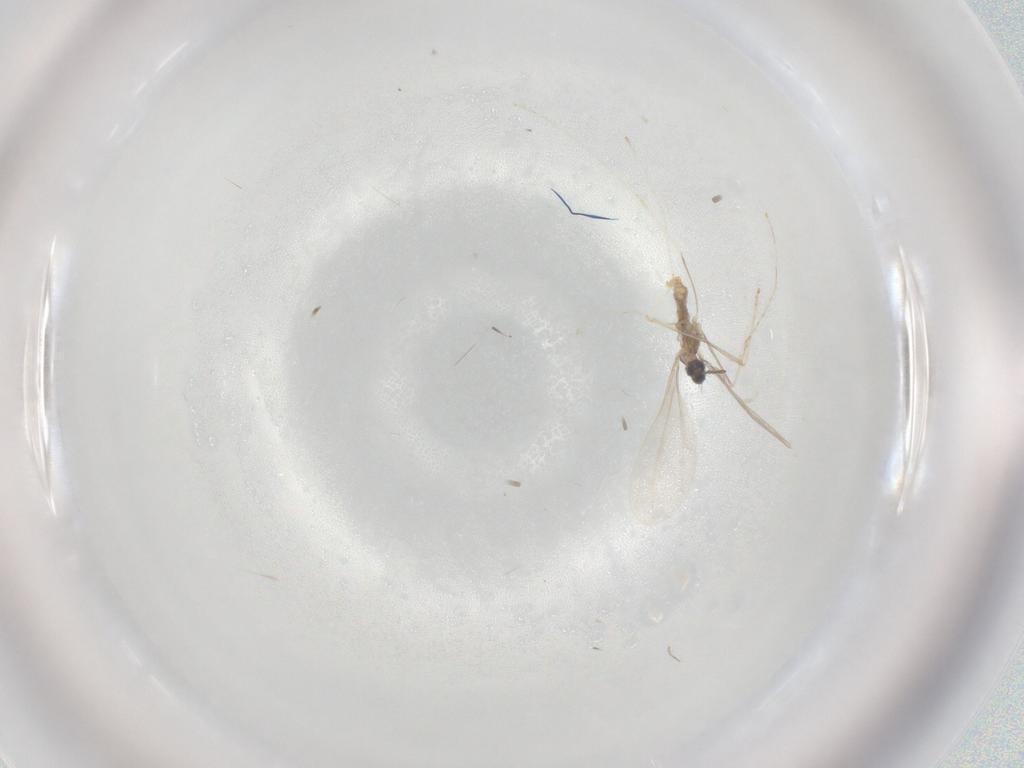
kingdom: Animalia
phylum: Arthropoda
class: Insecta
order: Diptera
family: Cecidomyiidae
